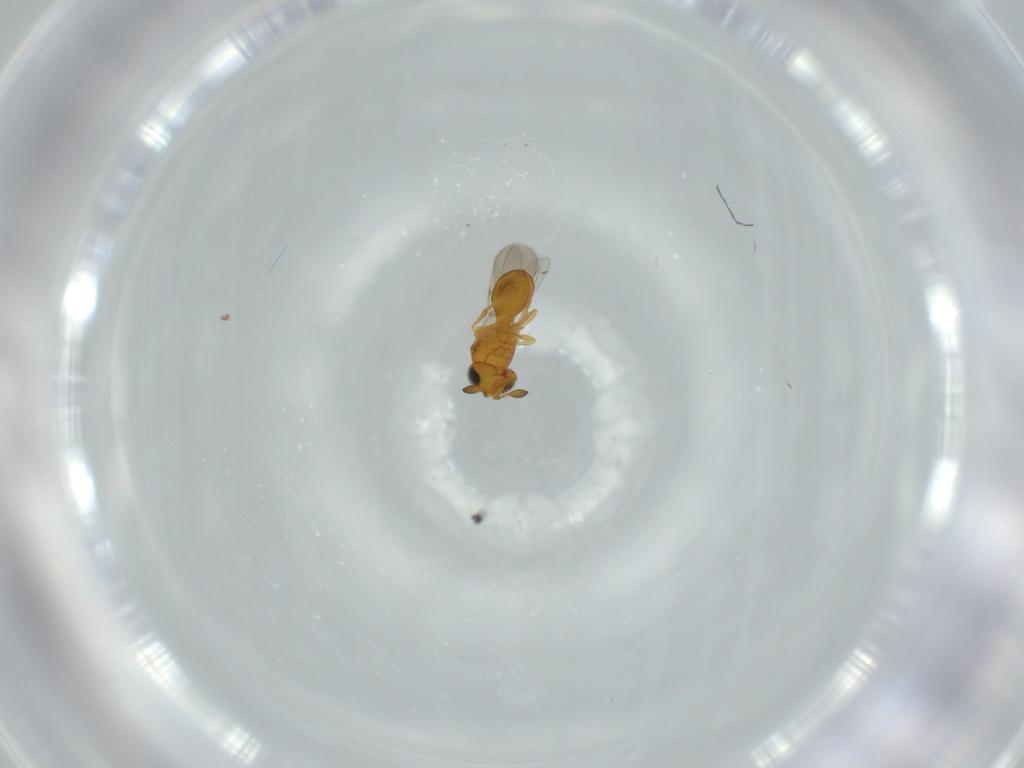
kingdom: Animalia
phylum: Arthropoda
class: Insecta
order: Hymenoptera
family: Scelionidae
